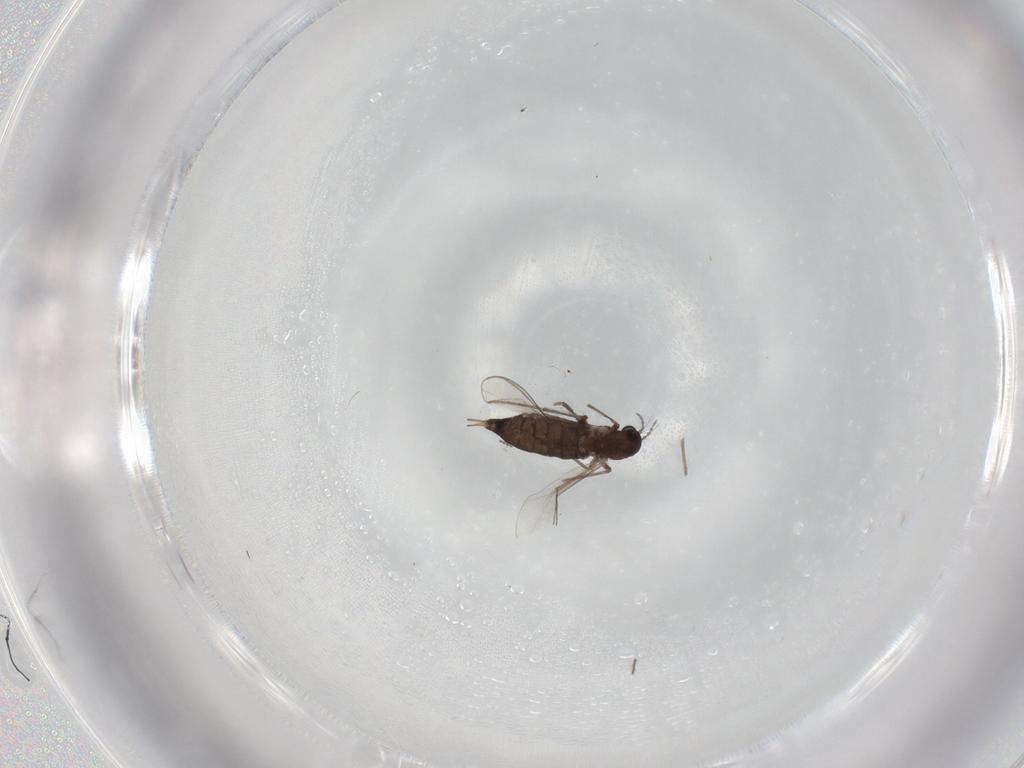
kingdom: Animalia
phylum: Arthropoda
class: Insecta
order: Diptera
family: Chironomidae
